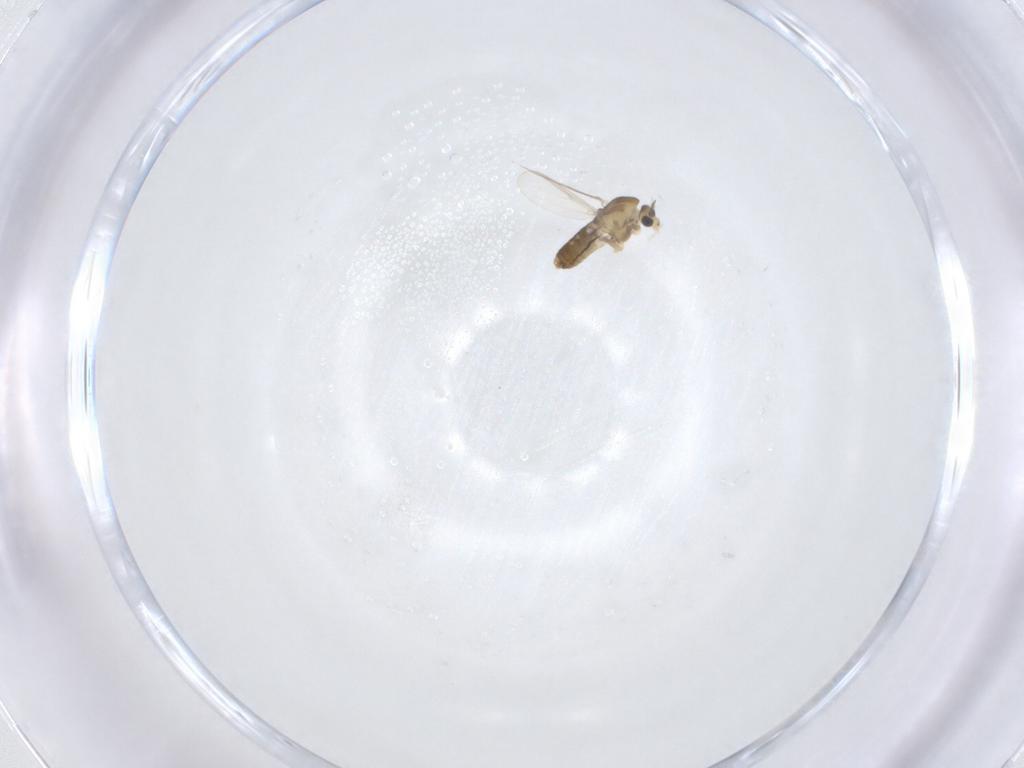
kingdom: Animalia
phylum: Arthropoda
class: Insecta
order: Diptera
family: Chironomidae
